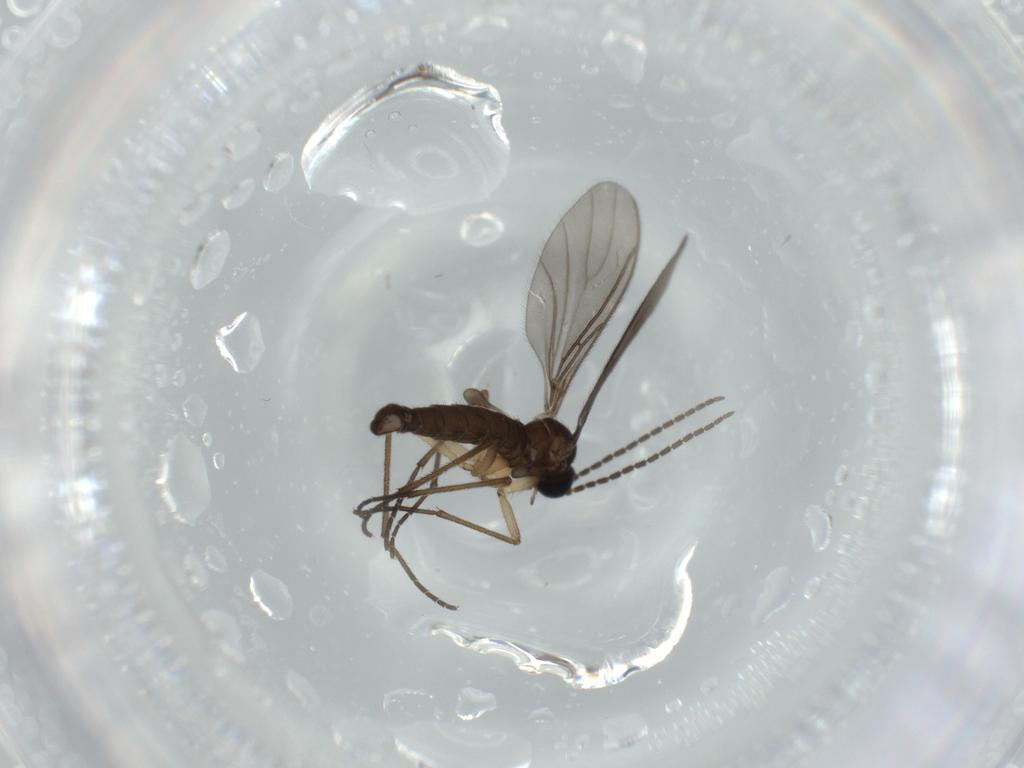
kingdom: Animalia
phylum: Arthropoda
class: Insecta
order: Diptera
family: Sciaridae
